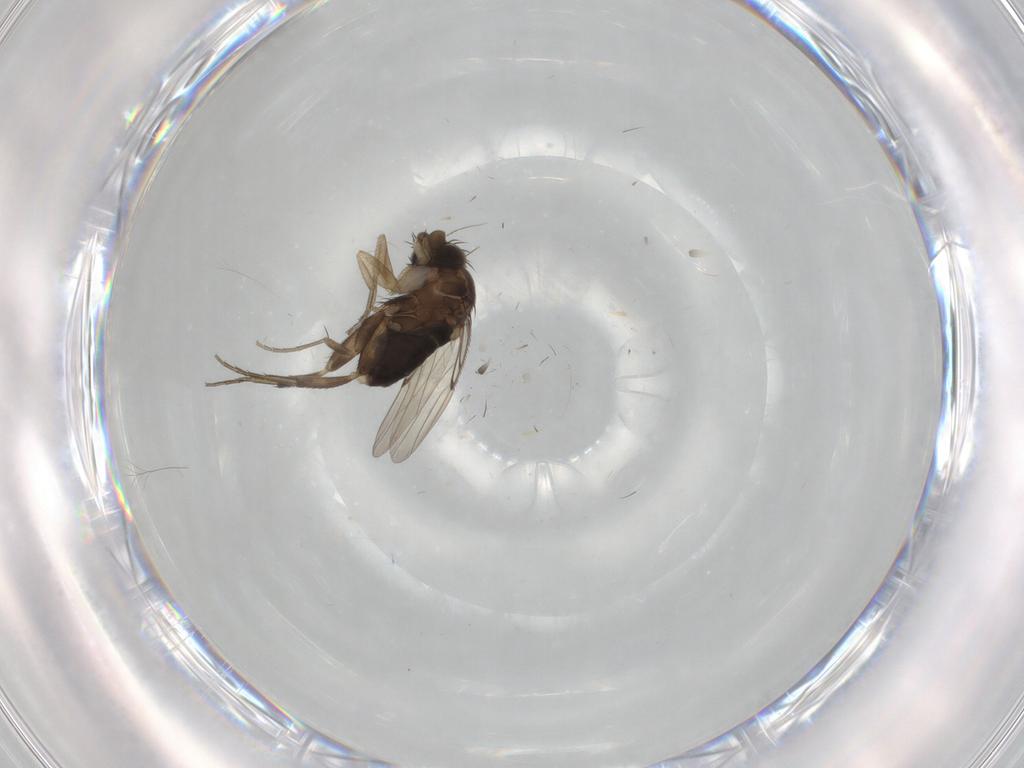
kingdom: Animalia
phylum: Arthropoda
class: Insecta
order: Diptera
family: Phoridae
